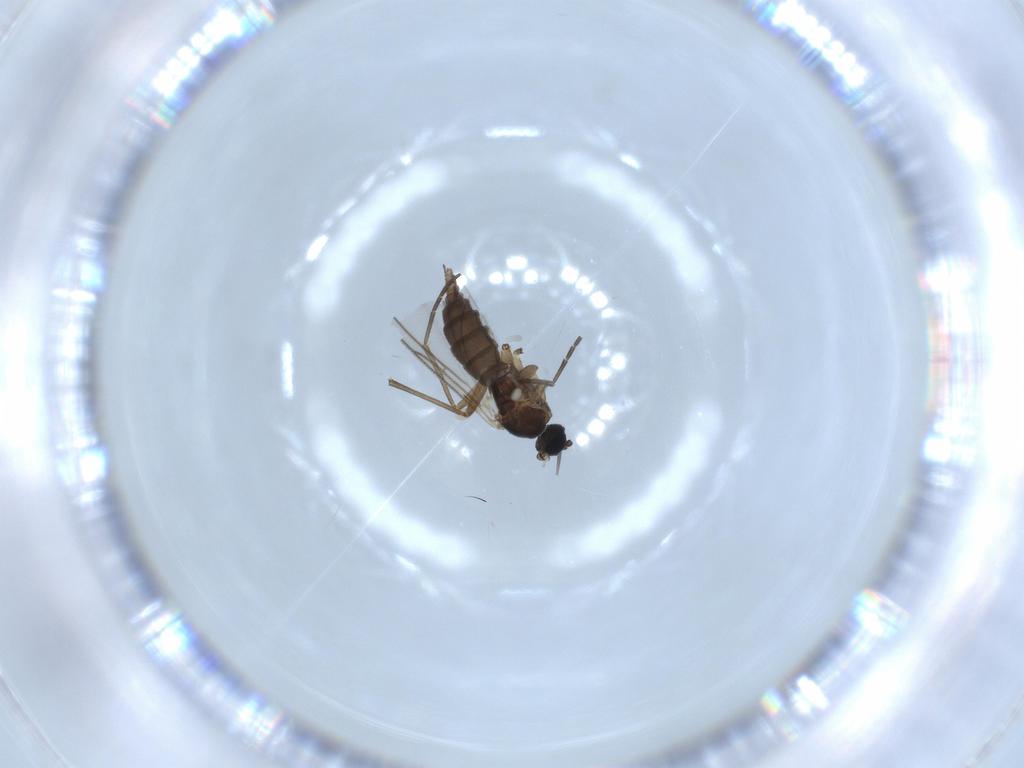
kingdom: Animalia
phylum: Arthropoda
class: Insecta
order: Diptera
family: Sciaridae
